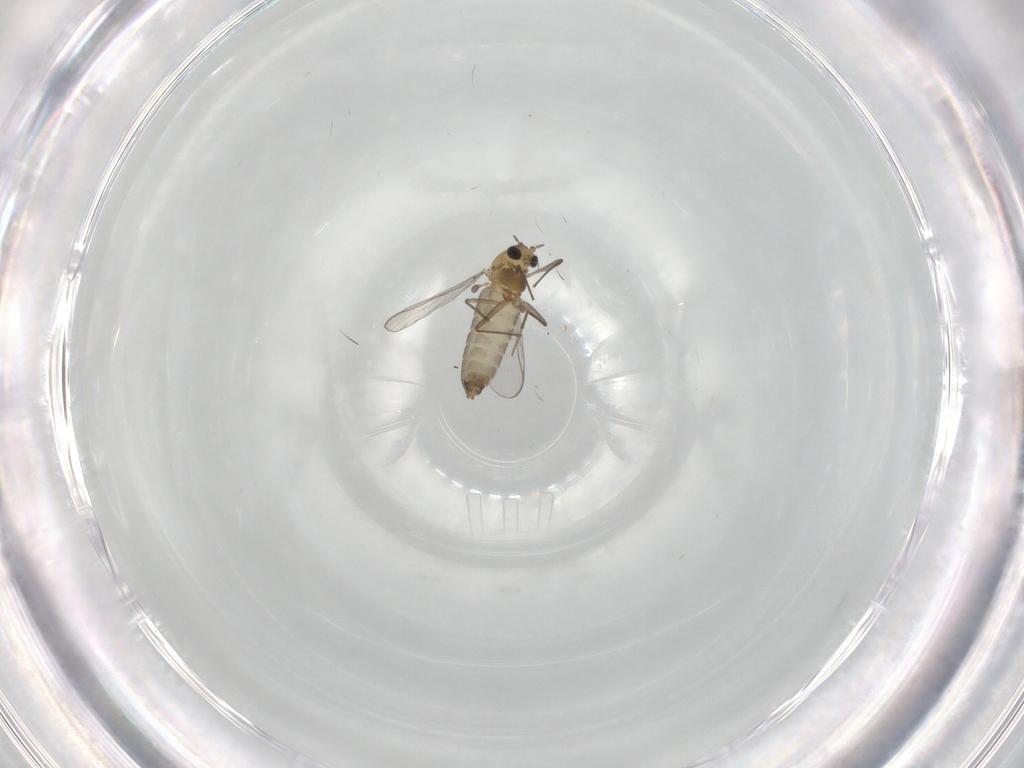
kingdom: Animalia
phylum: Arthropoda
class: Insecta
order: Diptera
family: Chironomidae
